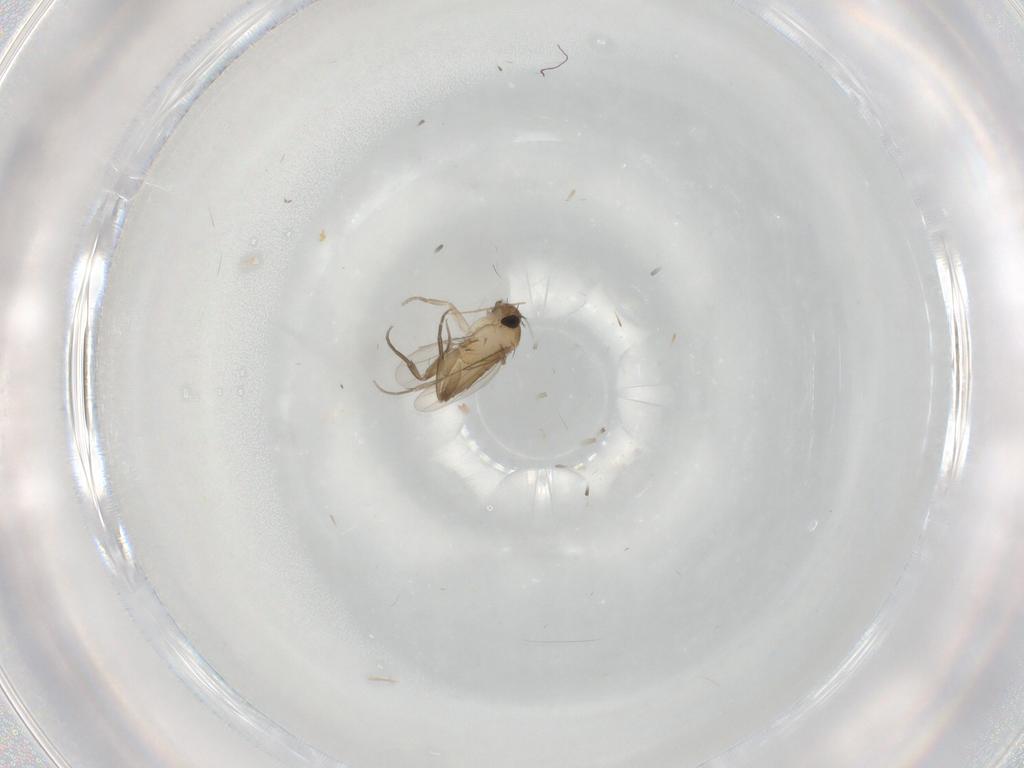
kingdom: Animalia
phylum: Arthropoda
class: Insecta
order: Diptera
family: Chironomidae
